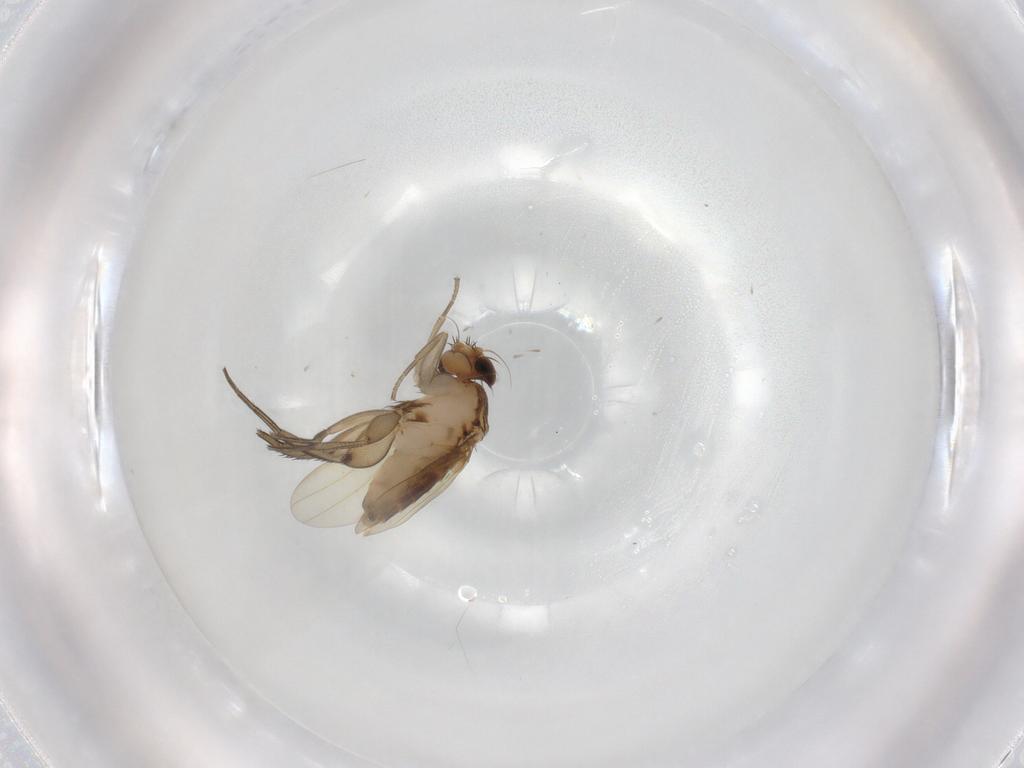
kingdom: Animalia
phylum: Arthropoda
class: Insecta
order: Diptera
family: Phoridae
